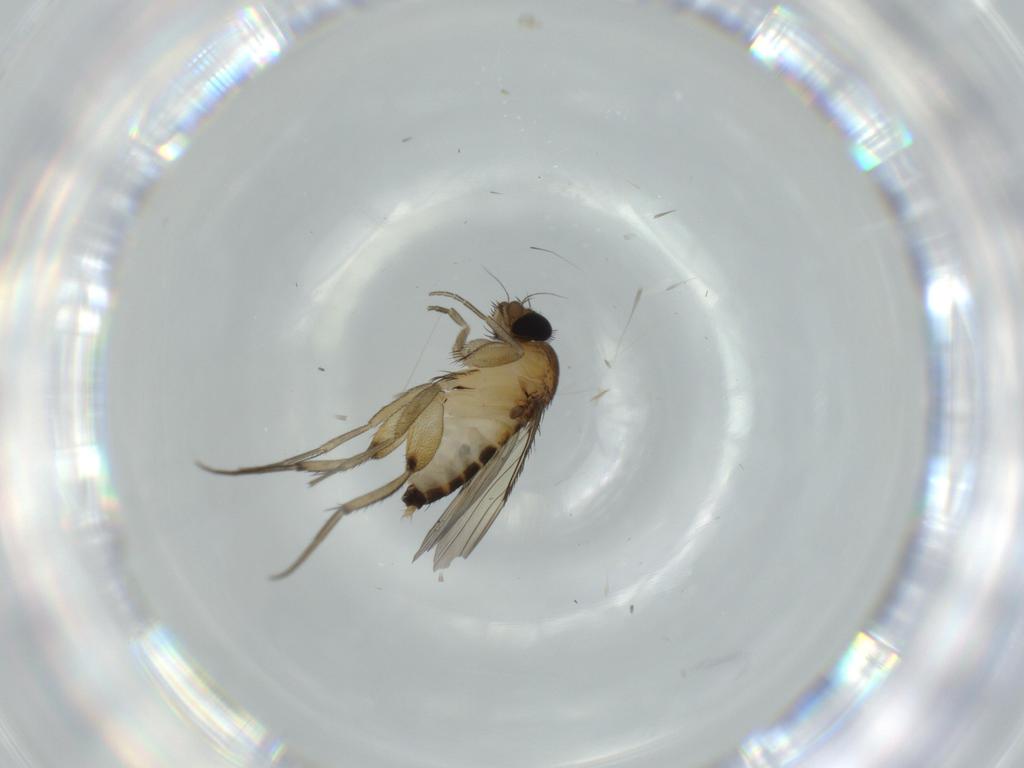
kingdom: Animalia
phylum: Arthropoda
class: Insecta
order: Diptera
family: Phoridae
